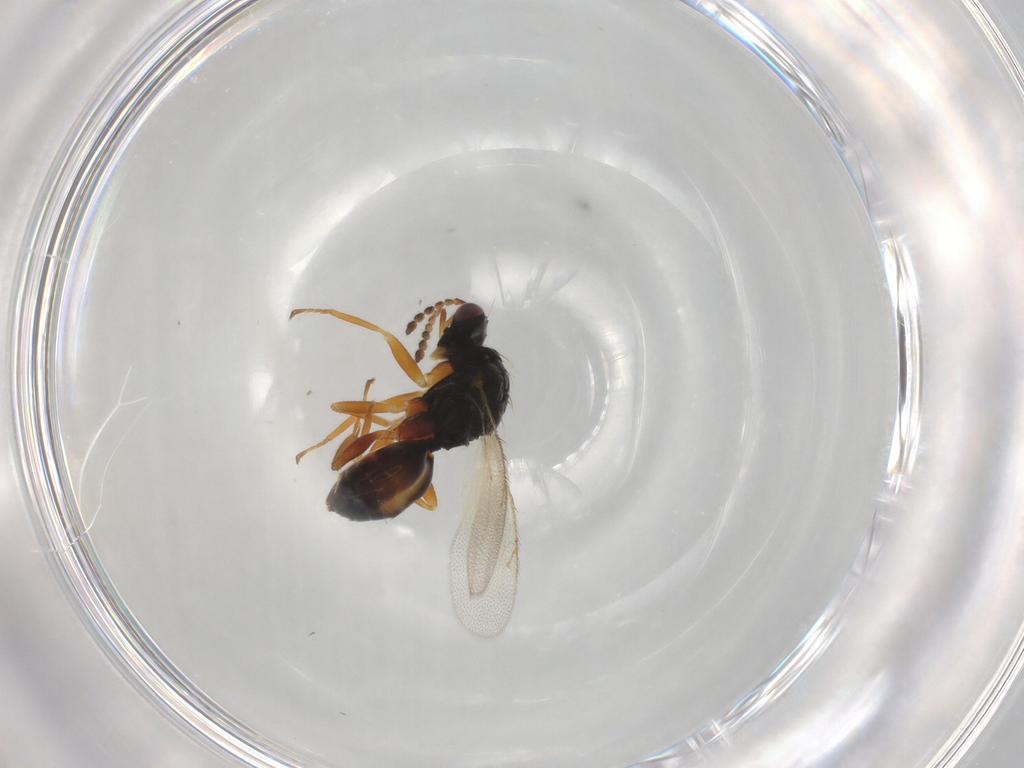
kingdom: Animalia
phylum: Arthropoda
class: Insecta
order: Hymenoptera
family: Eulophidae
